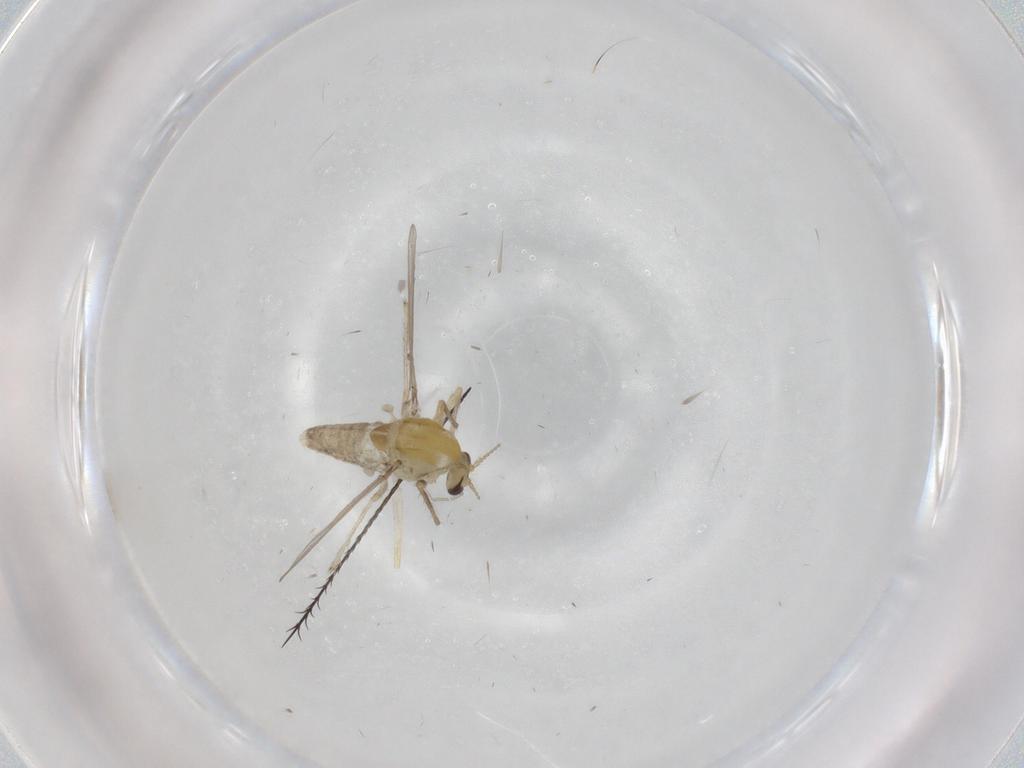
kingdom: Animalia
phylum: Arthropoda
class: Insecta
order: Diptera
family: Chironomidae
